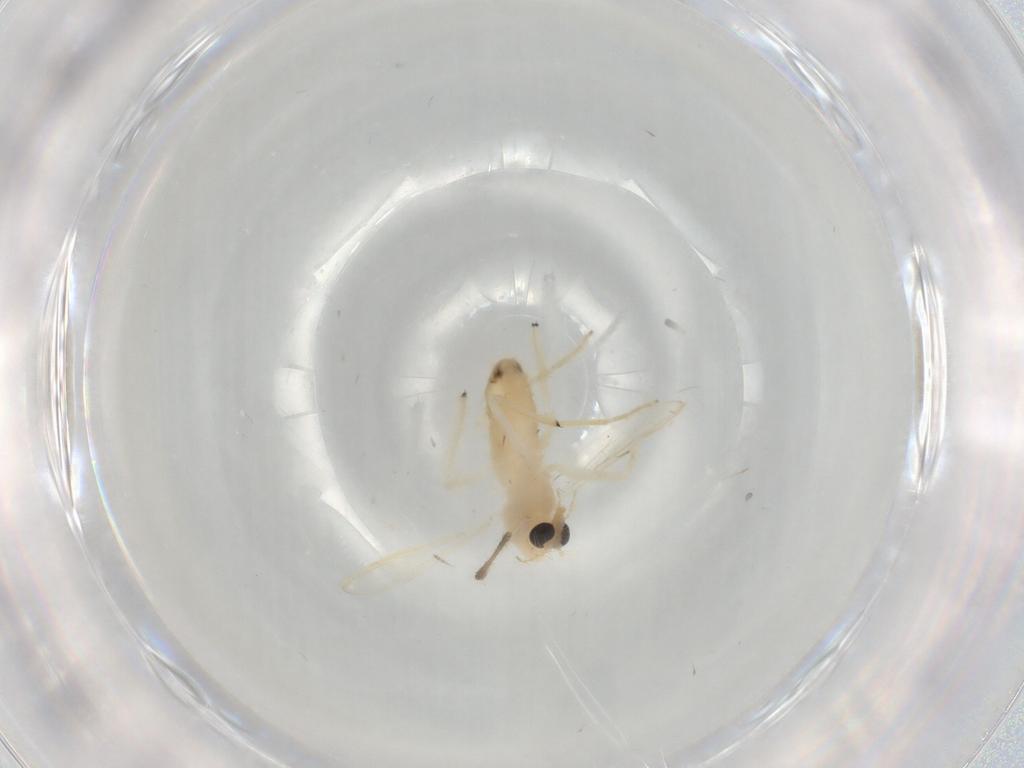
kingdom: Animalia
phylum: Arthropoda
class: Insecta
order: Diptera
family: Chironomidae
